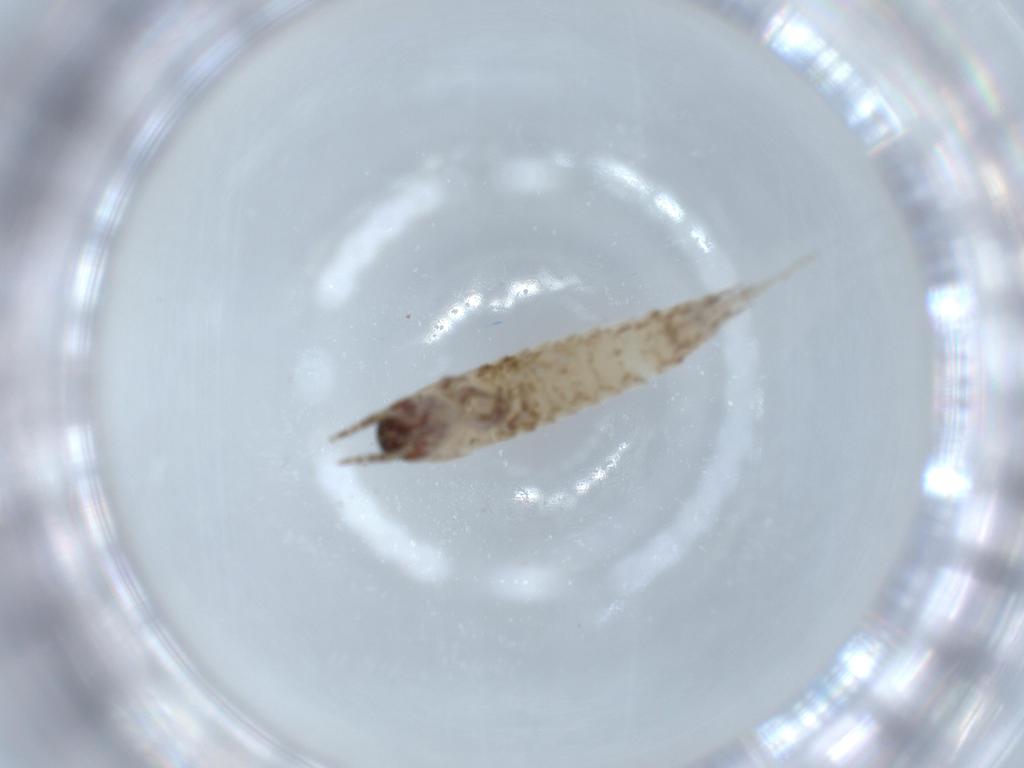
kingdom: Animalia
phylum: Arthropoda
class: Insecta
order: Archaeognatha
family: Machilidae
